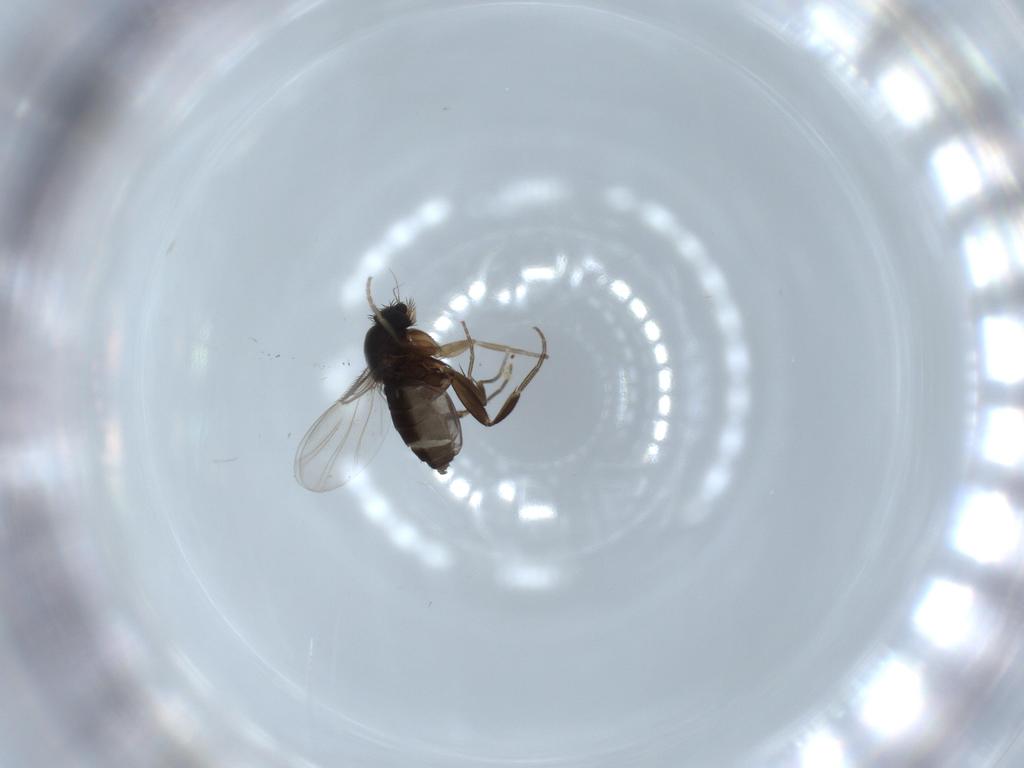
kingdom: Animalia
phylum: Arthropoda
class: Insecta
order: Diptera
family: Phoridae
